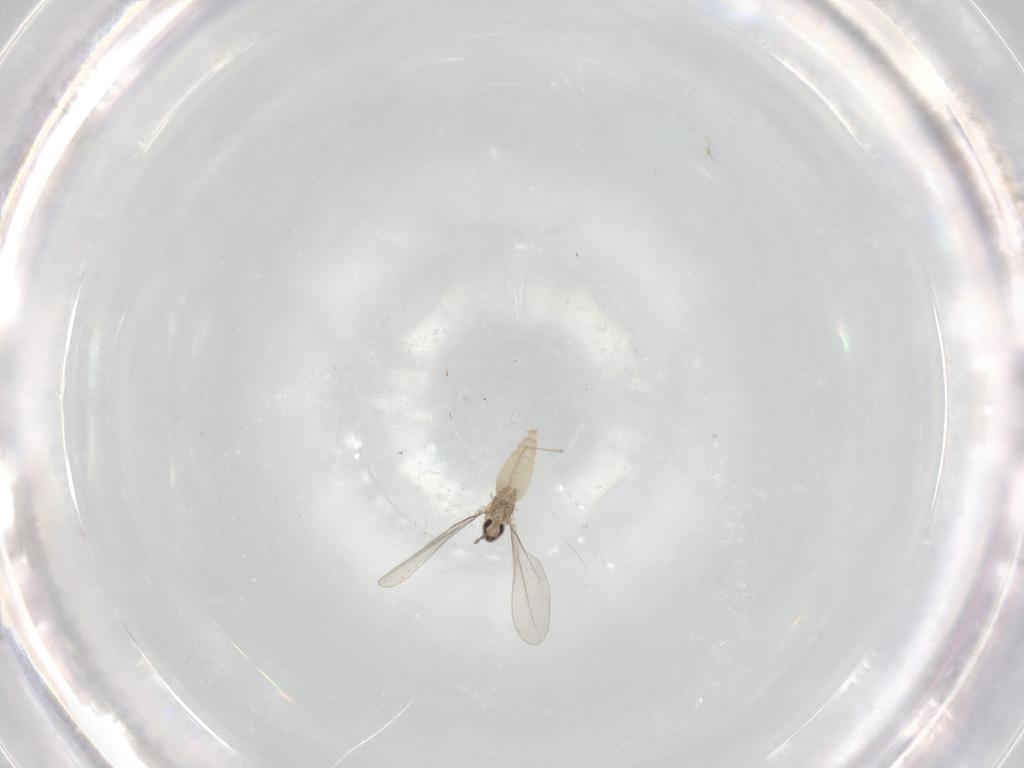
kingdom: Animalia
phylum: Arthropoda
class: Insecta
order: Diptera
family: Cecidomyiidae
